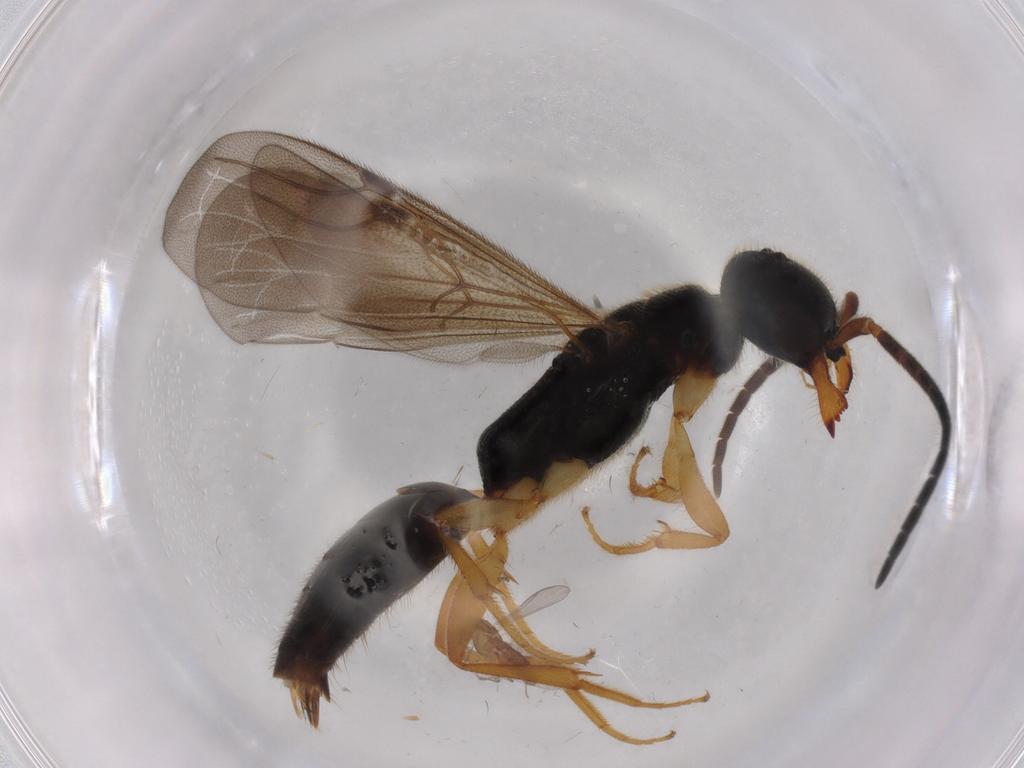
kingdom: Animalia
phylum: Arthropoda
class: Insecta
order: Hymenoptera
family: Bethylidae
